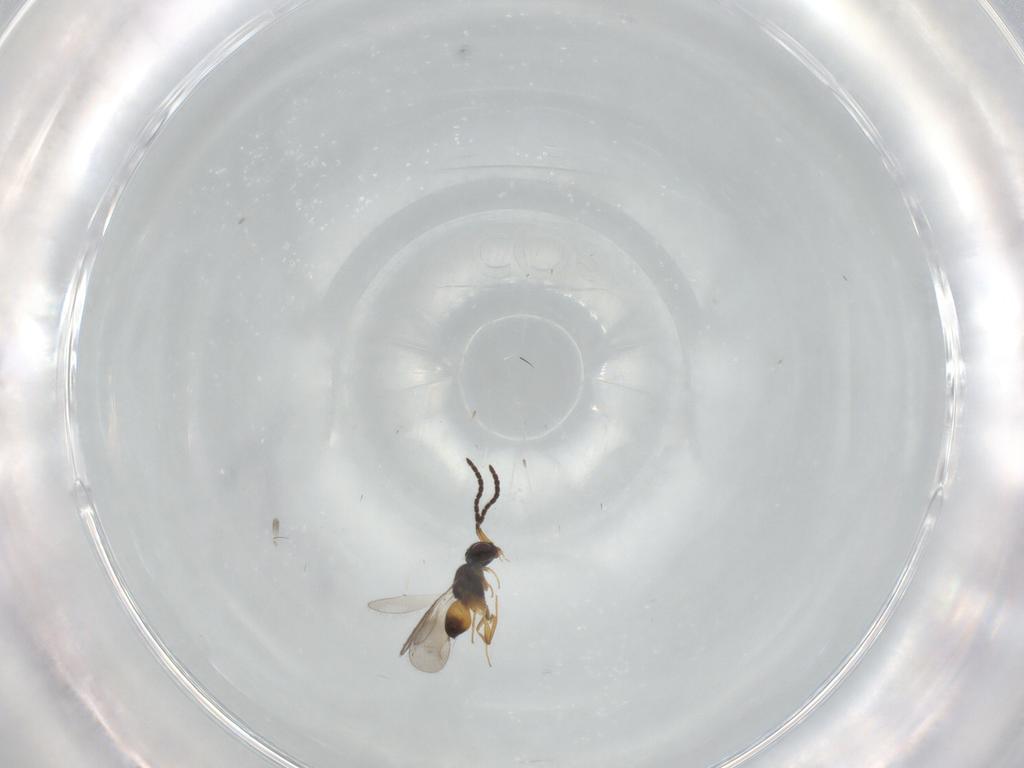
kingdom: Animalia
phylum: Arthropoda
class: Insecta
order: Hymenoptera
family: Ceraphronidae
